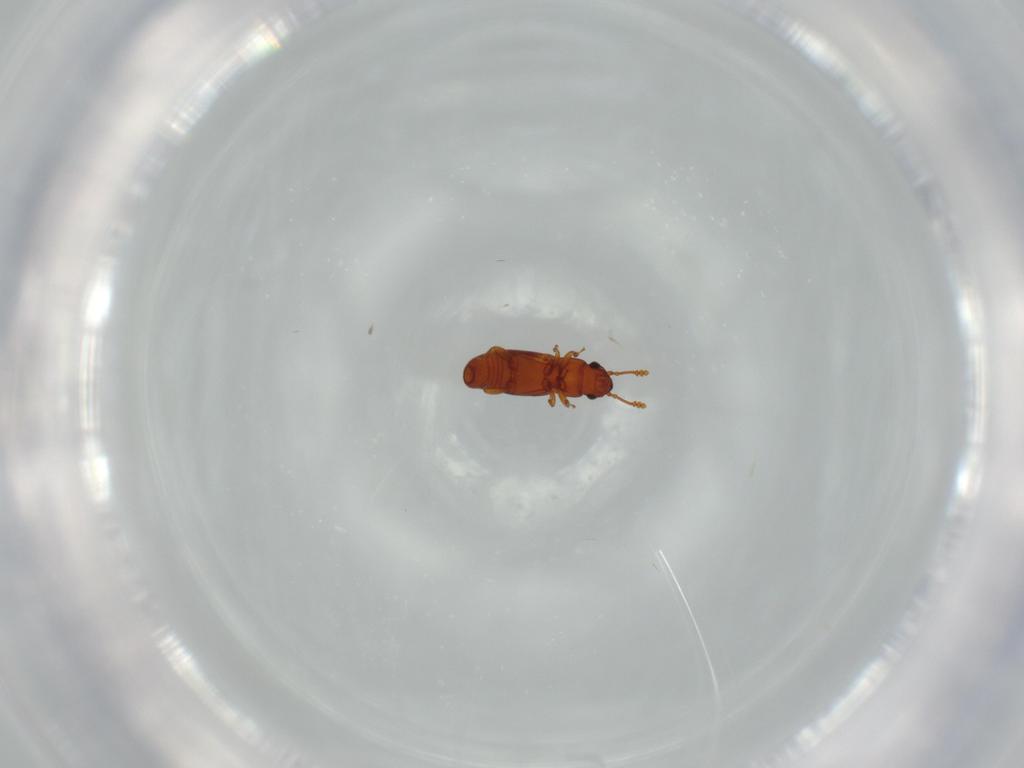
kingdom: Animalia
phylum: Arthropoda
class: Insecta
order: Coleoptera
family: Smicripidae
